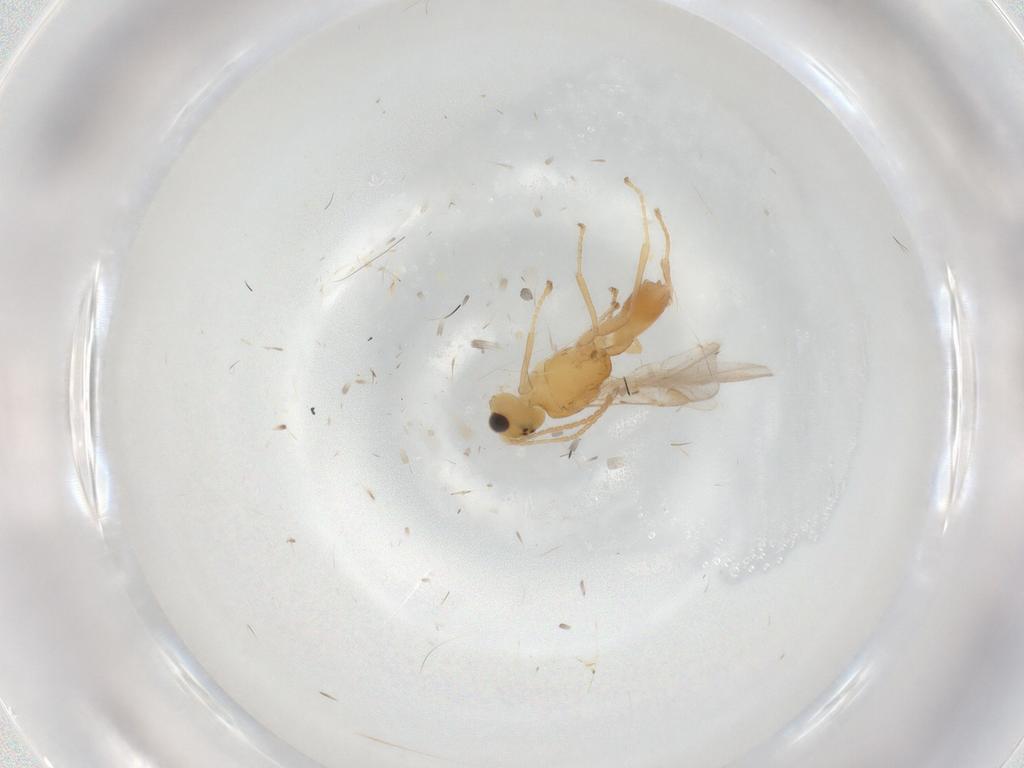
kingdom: Animalia
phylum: Arthropoda
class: Insecta
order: Hymenoptera
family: Braconidae
